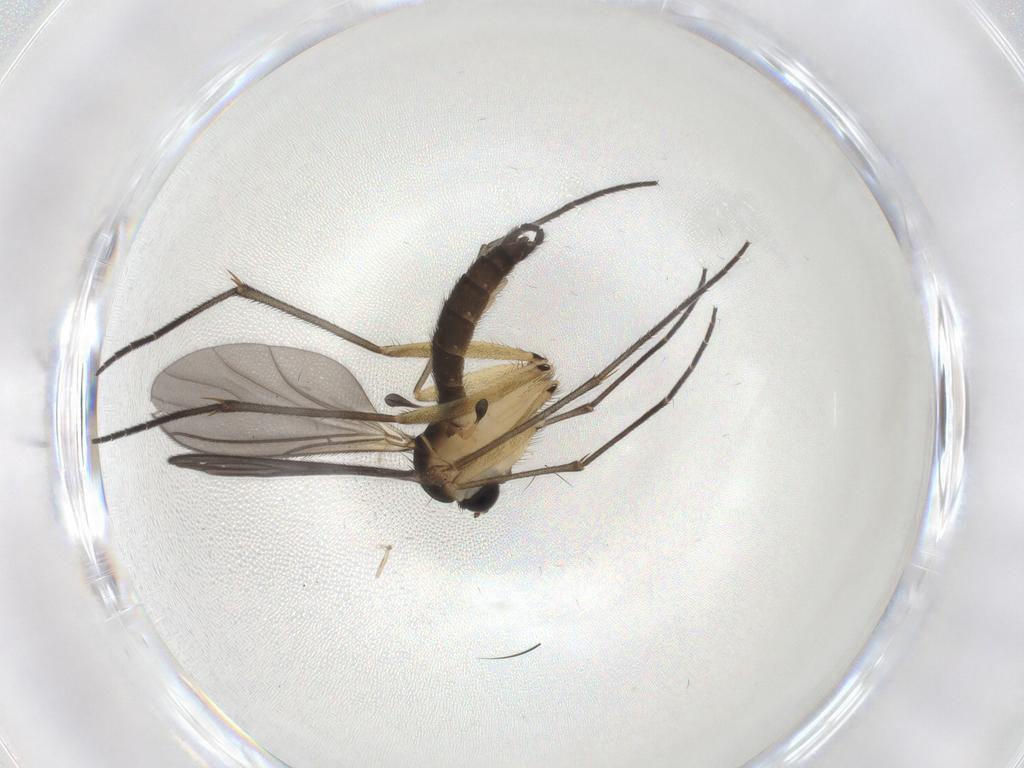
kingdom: Animalia
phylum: Arthropoda
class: Insecta
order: Diptera
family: Sciaridae
